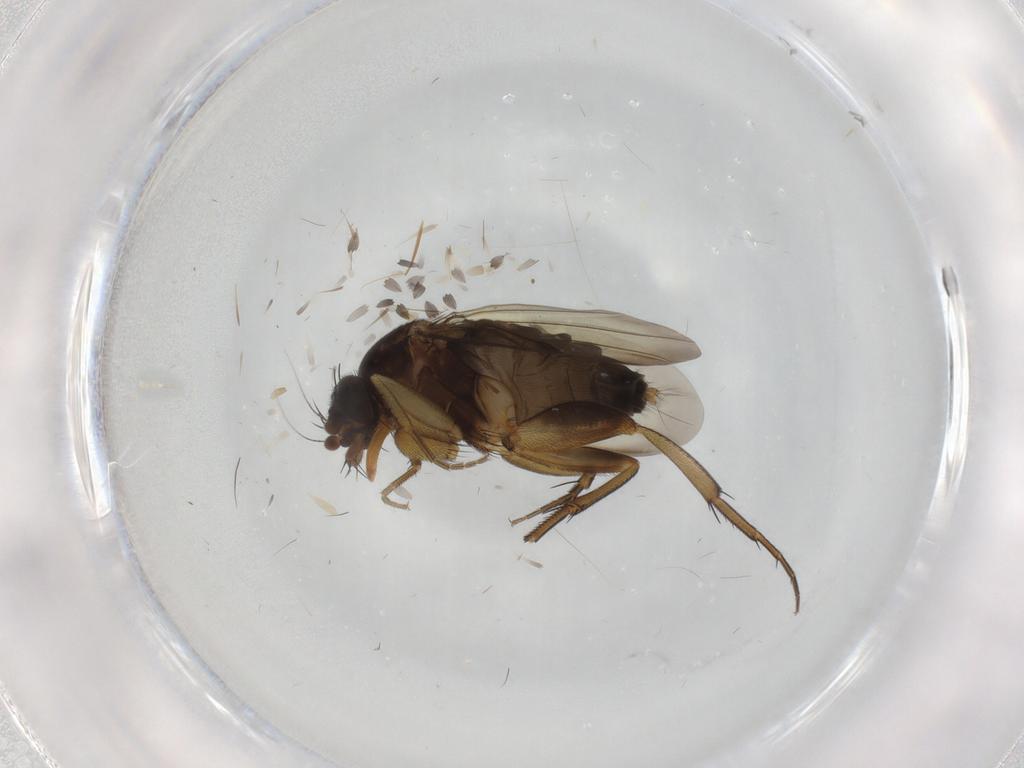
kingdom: Animalia
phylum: Arthropoda
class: Insecta
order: Diptera
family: Phoridae
